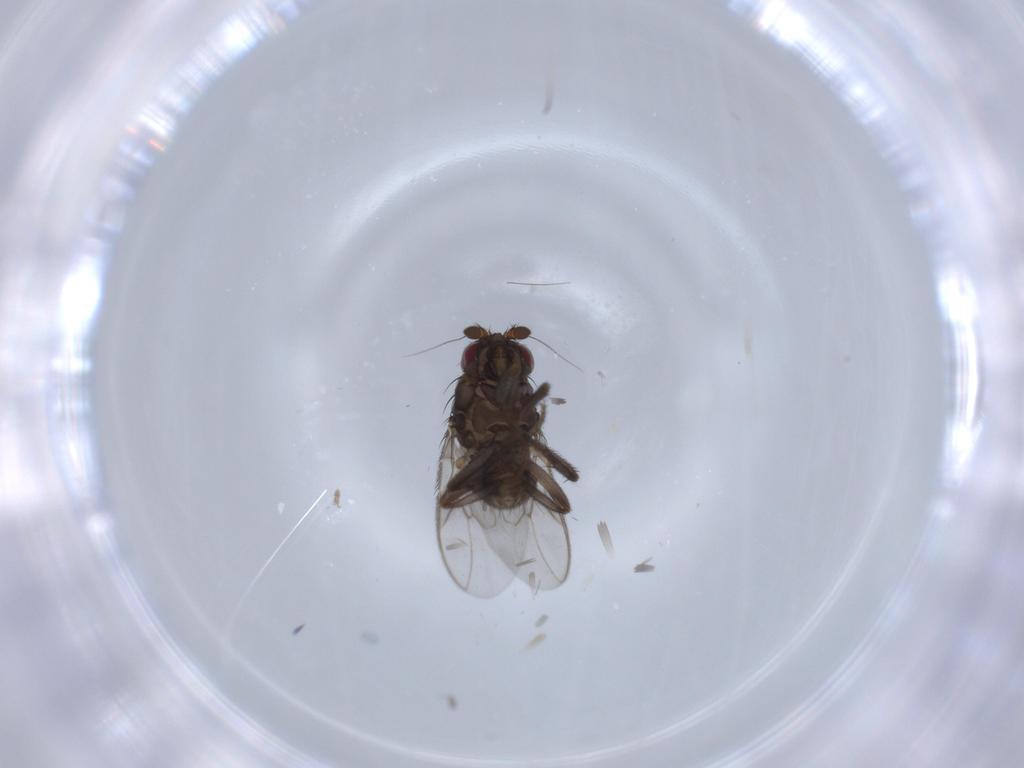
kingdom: Animalia
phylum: Arthropoda
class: Insecta
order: Diptera
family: Sphaeroceridae
